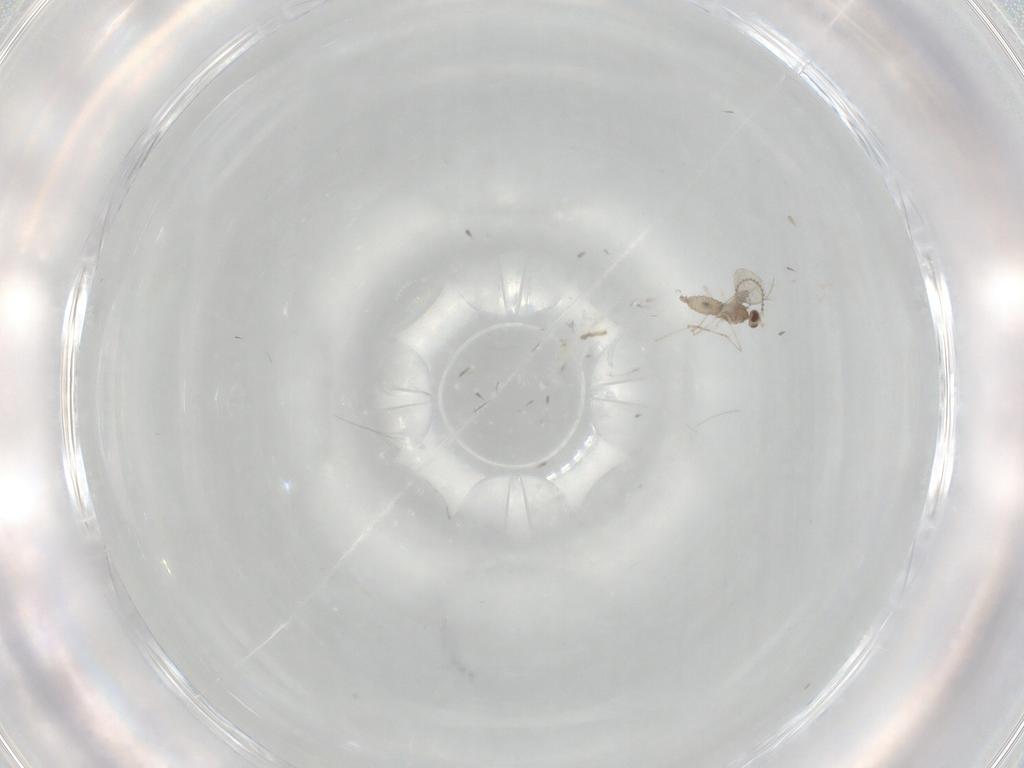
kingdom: Animalia
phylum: Arthropoda
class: Insecta
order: Diptera
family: Cecidomyiidae
